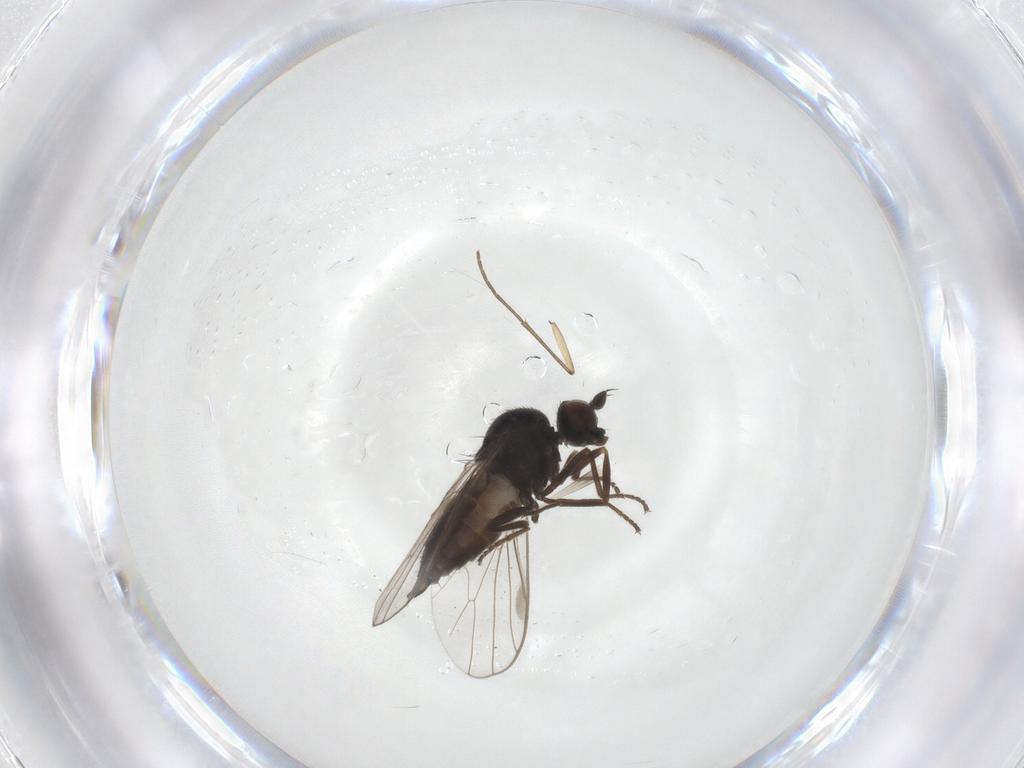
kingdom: Animalia
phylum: Arthropoda
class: Insecta
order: Diptera
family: Hybotidae
